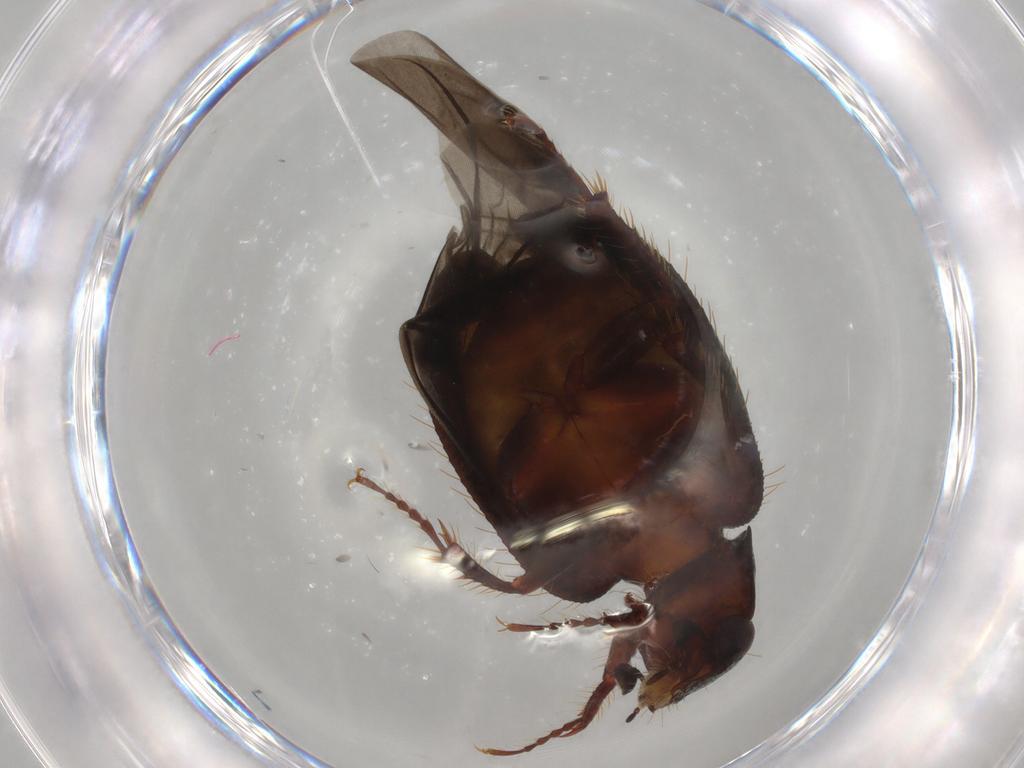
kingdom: Animalia
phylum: Arthropoda
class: Insecta
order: Coleoptera
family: Hybosoridae
